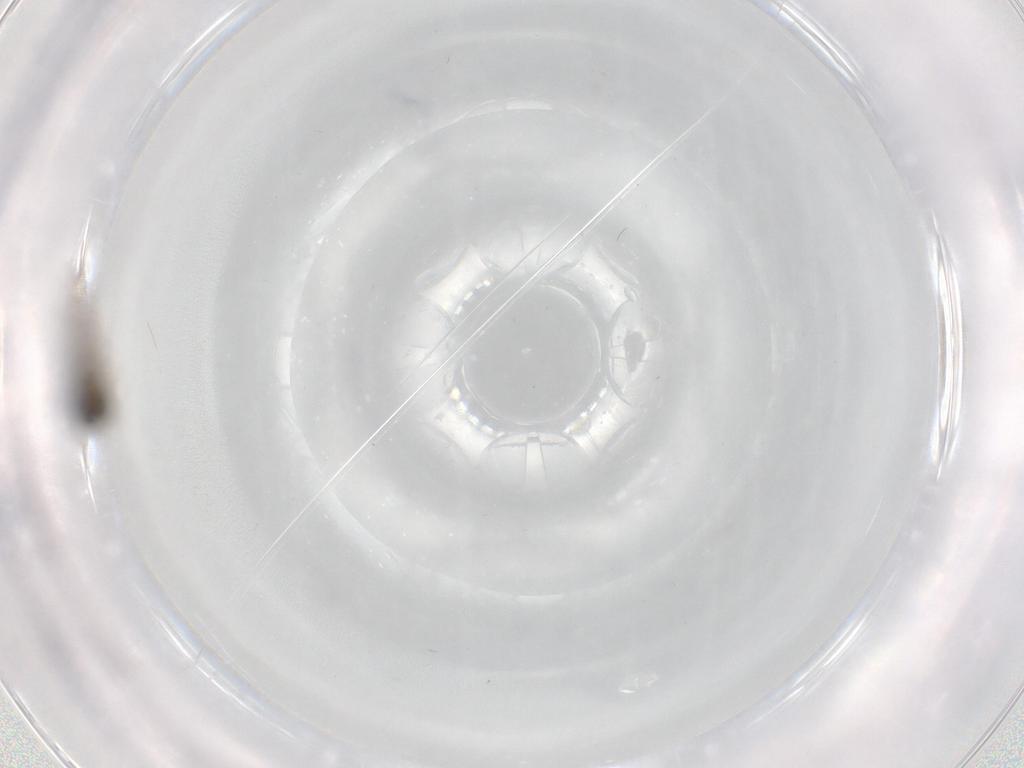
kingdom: Animalia
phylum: Arthropoda
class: Insecta
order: Diptera
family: Psychodidae
